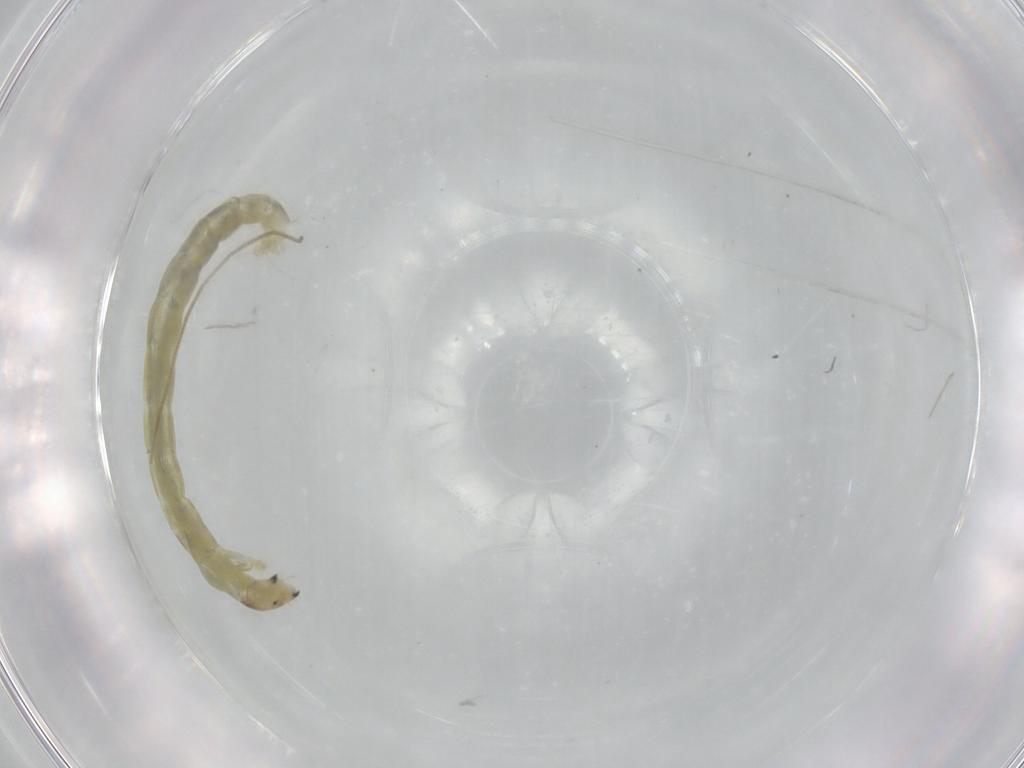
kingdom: Animalia
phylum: Arthropoda
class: Insecta
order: Diptera
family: Chironomidae
